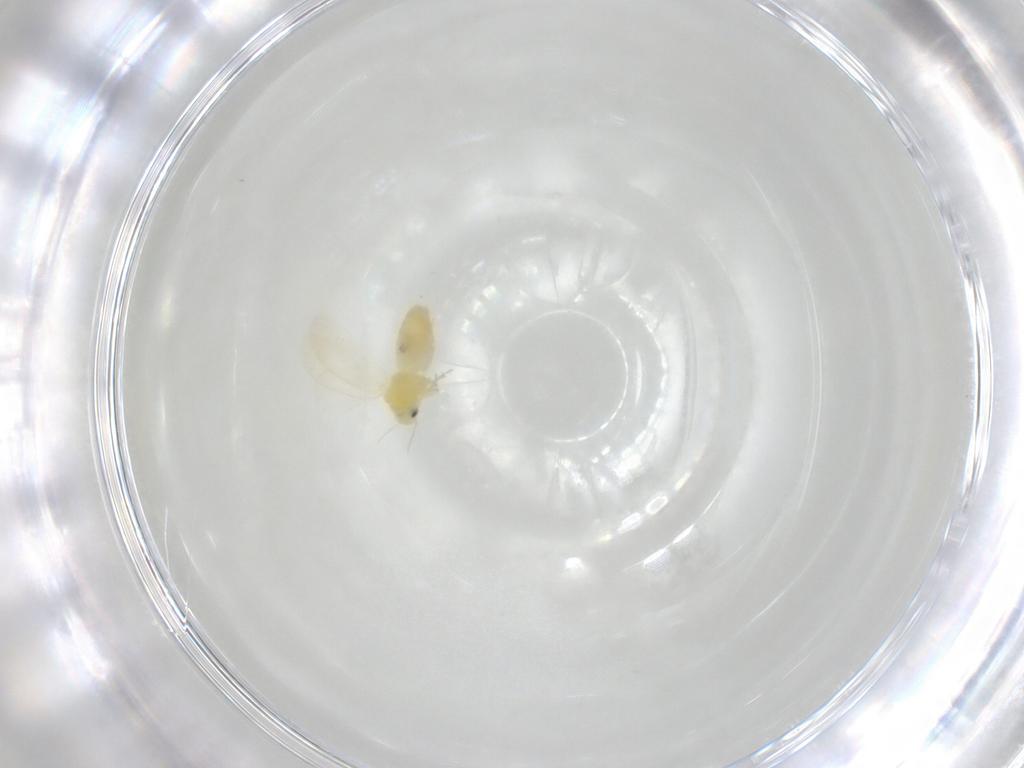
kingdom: Animalia
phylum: Arthropoda
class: Insecta
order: Hemiptera
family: Aleyrodidae
